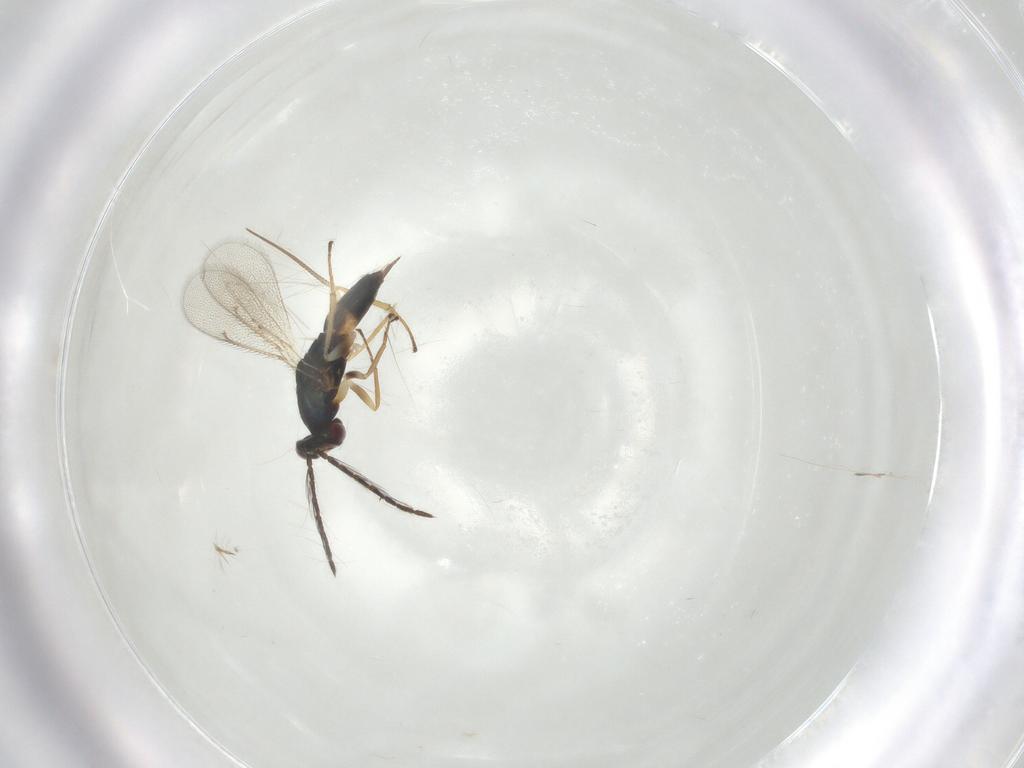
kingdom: Animalia
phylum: Arthropoda
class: Insecta
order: Hymenoptera
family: Eulophidae
